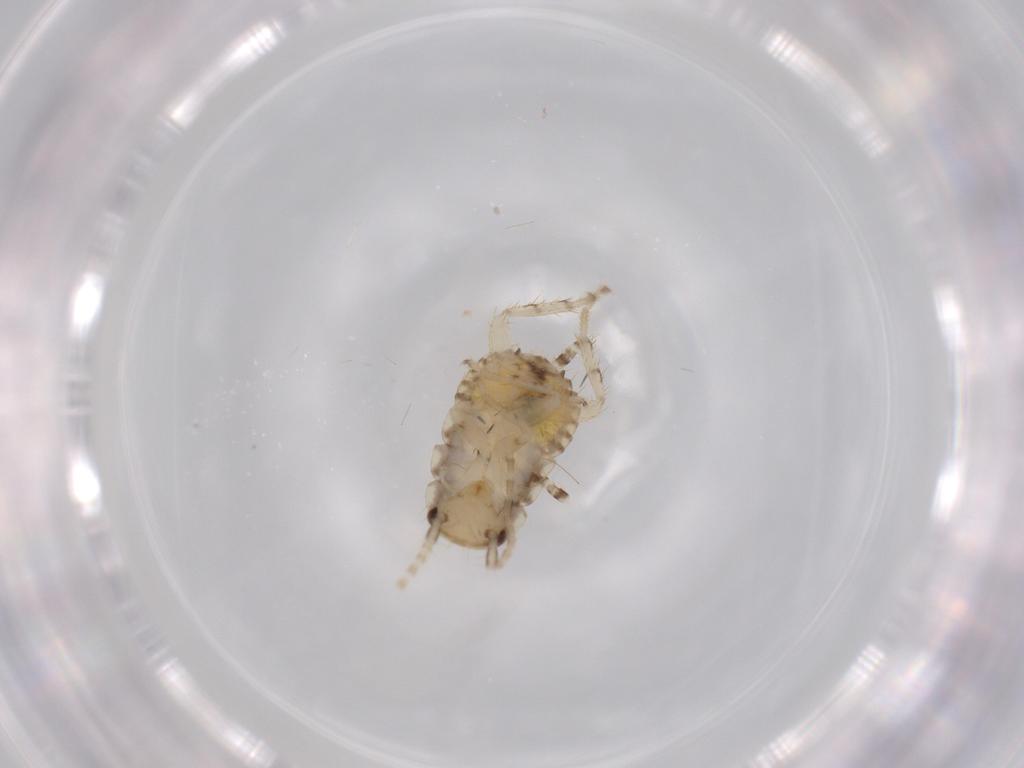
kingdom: Animalia
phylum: Arthropoda
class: Insecta
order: Blattodea
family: Ectobiidae
